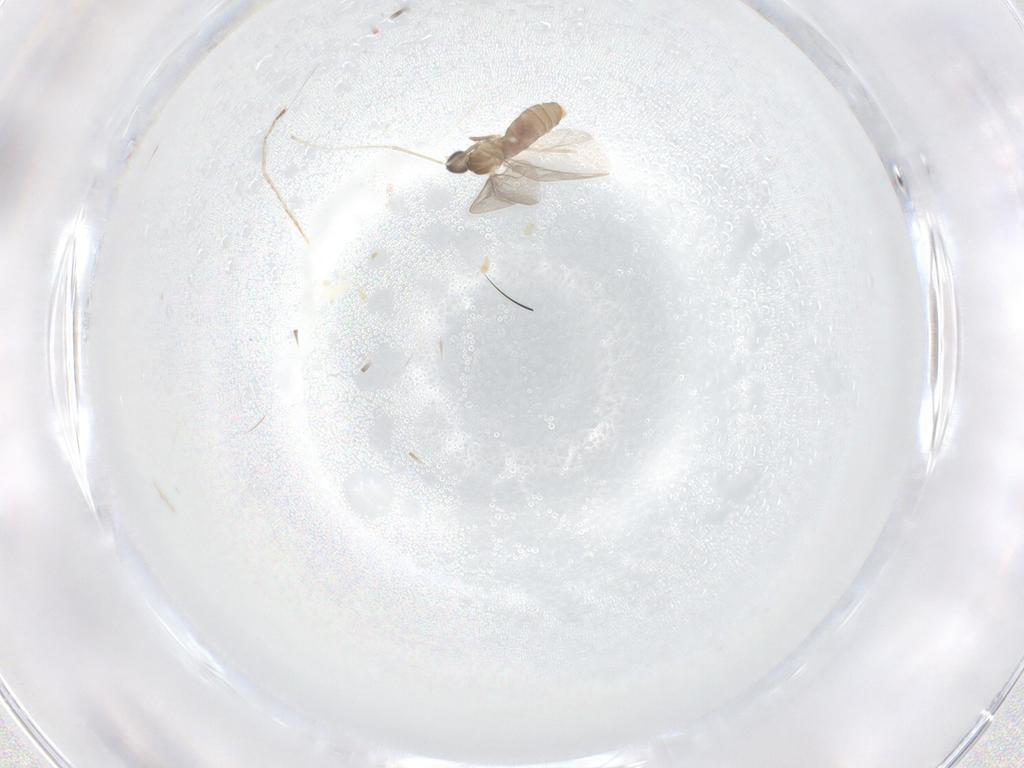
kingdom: Animalia
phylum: Arthropoda
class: Insecta
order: Diptera
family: Cecidomyiidae
